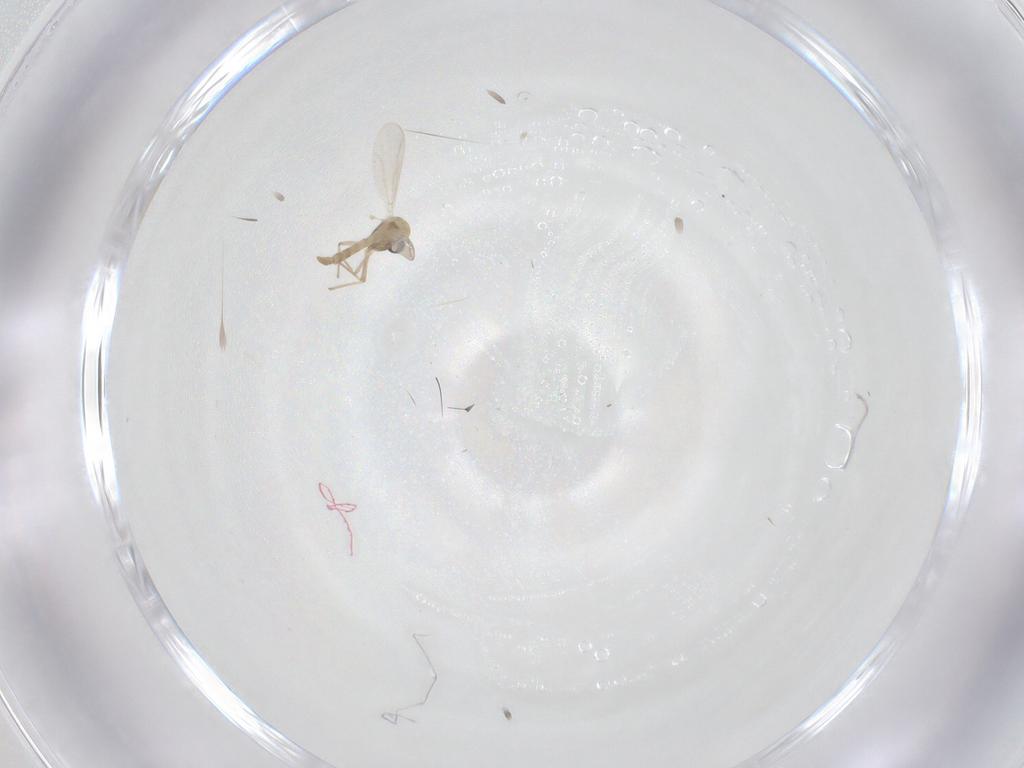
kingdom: Animalia
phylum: Arthropoda
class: Insecta
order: Diptera
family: Chironomidae
